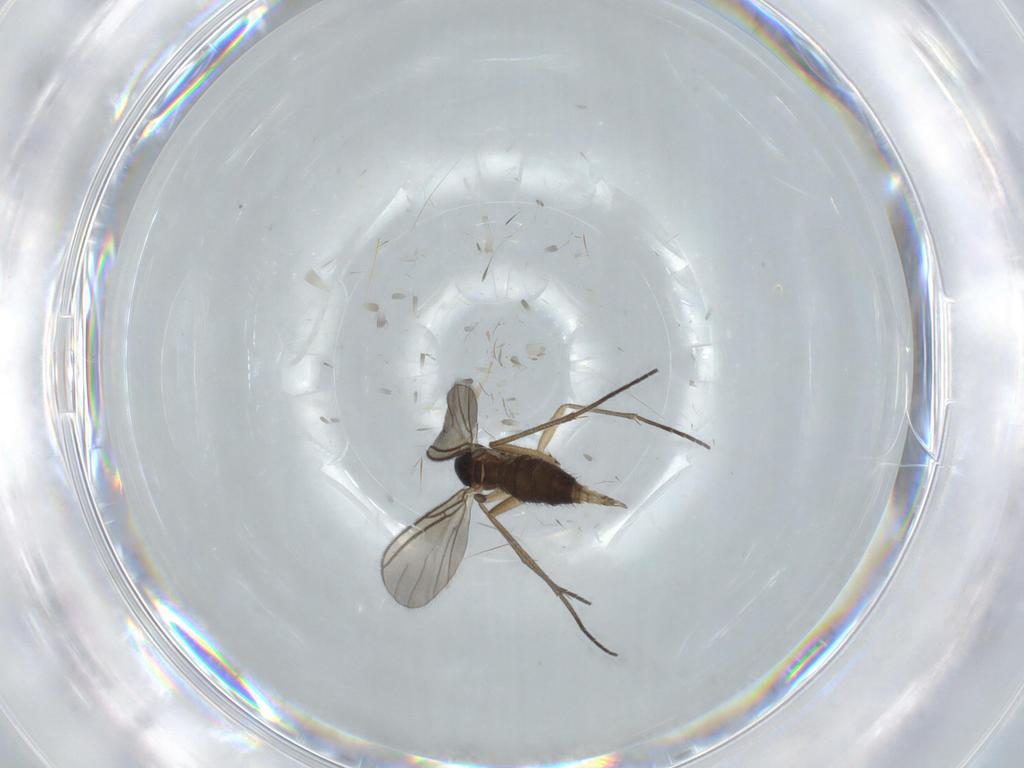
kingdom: Animalia
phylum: Arthropoda
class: Insecta
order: Diptera
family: Sciaridae
